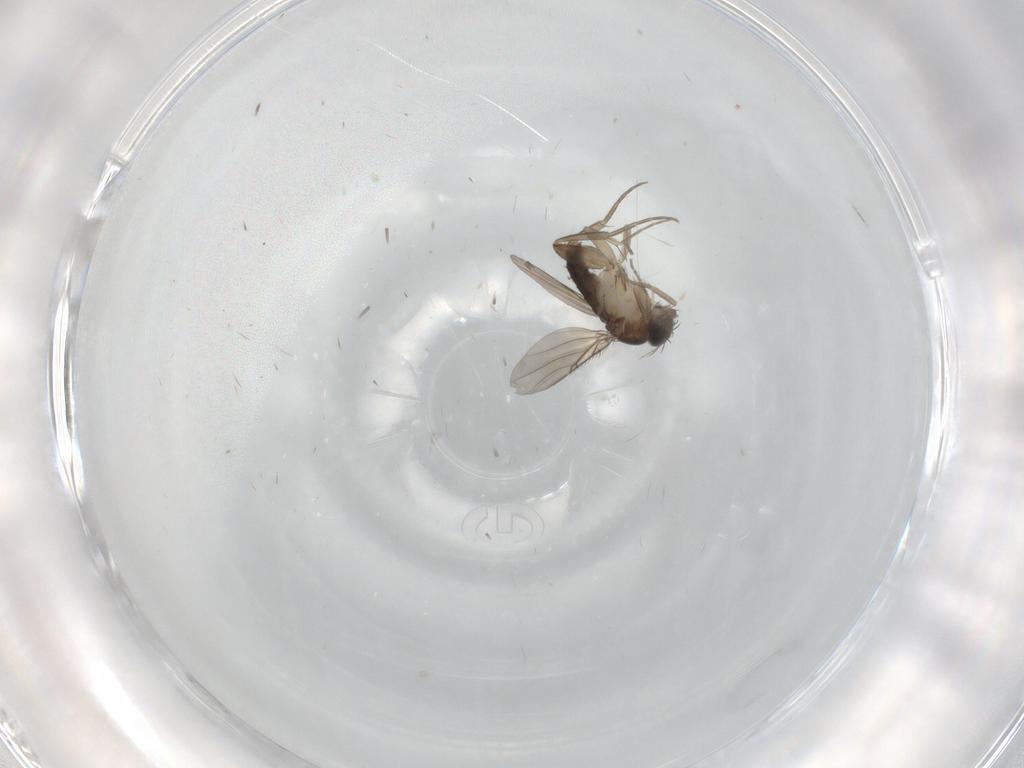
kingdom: Animalia
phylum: Arthropoda
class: Insecta
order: Diptera
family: Phoridae
